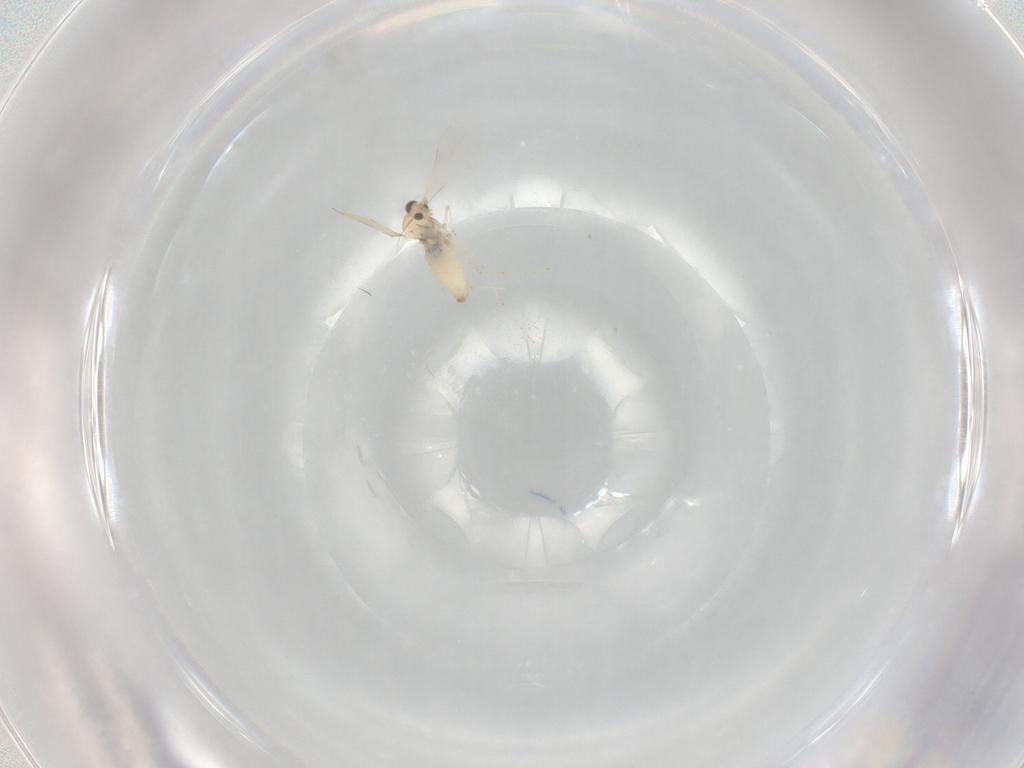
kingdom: Animalia
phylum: Arthropoda
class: Insecta
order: Diptera
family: Cecidomyiidae
